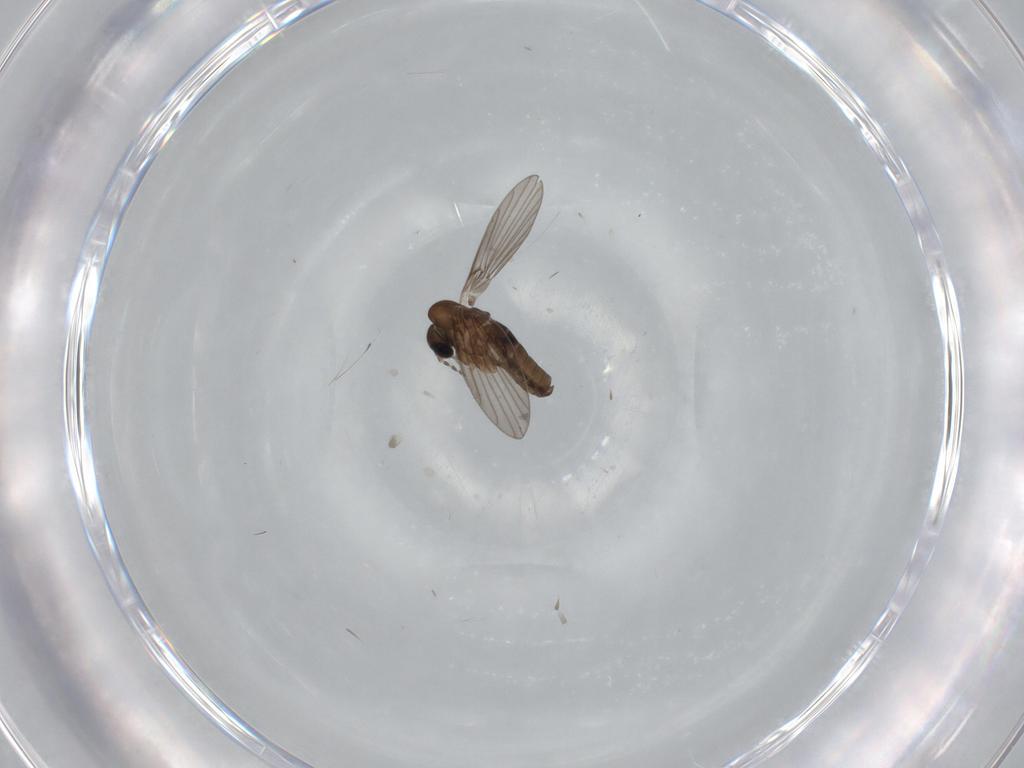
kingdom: Animalia
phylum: Arthropoda
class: Insecta
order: Diptera
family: Psychodidae
